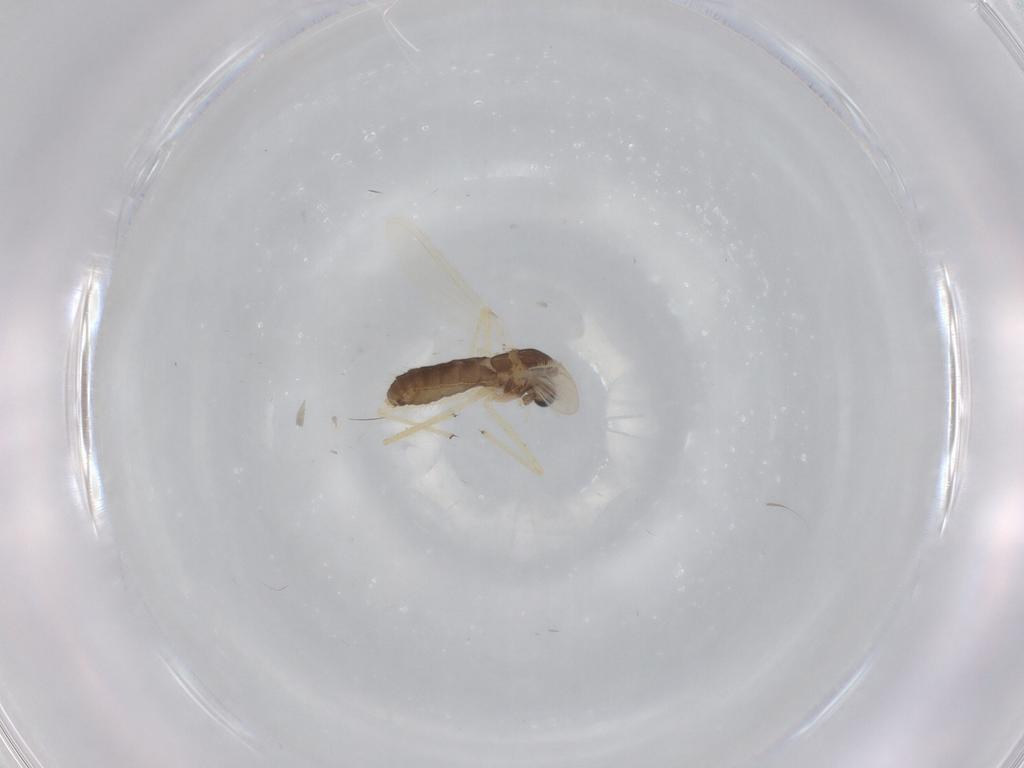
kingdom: Animalia
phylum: Arthropoda
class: Insecta
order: Diptera
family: Chironomidae
